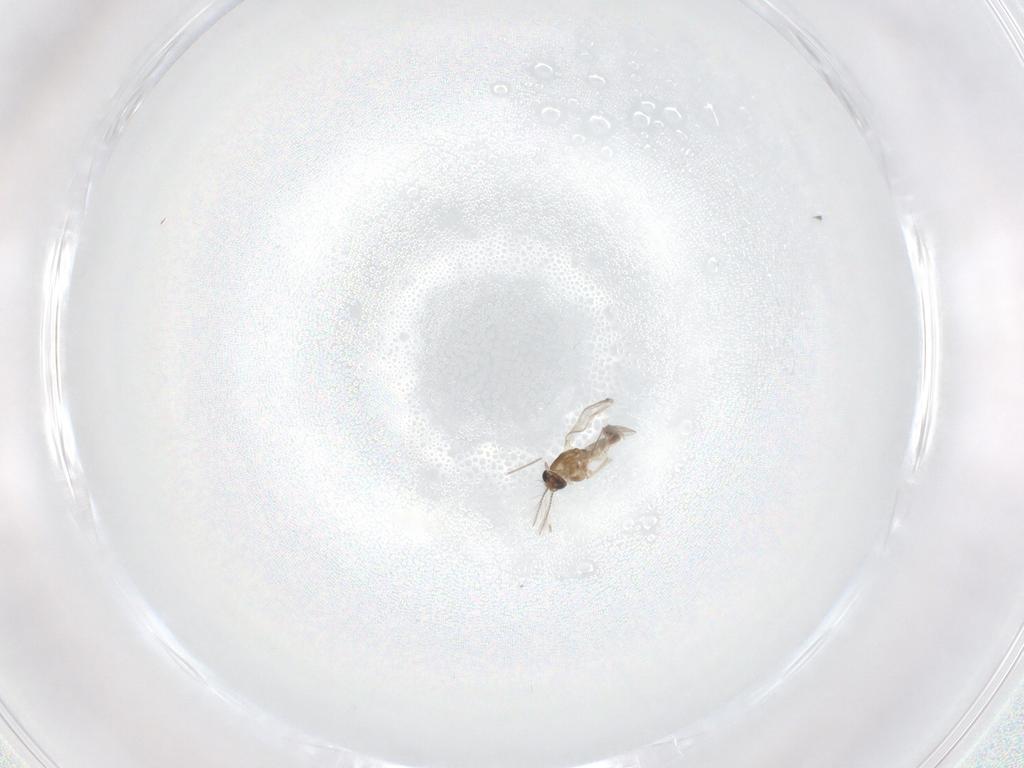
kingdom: Animalia
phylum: Arthropoda
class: Insecta
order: Diptera
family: Chironomidae
